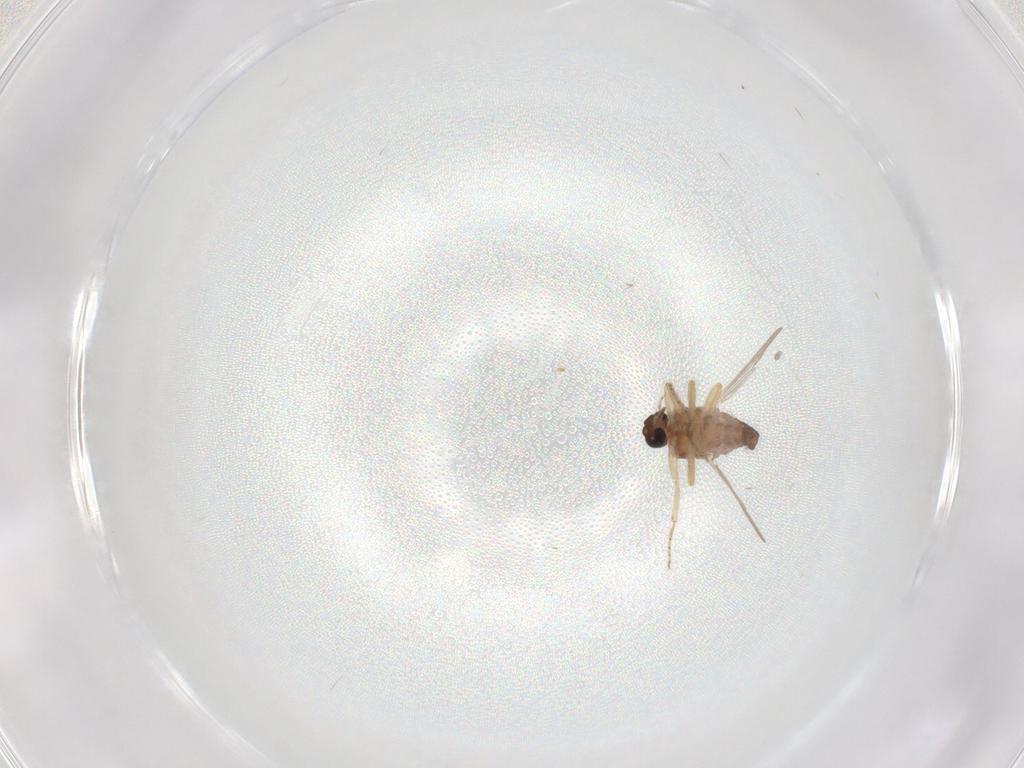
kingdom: Animalia
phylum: Arthropoda
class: Insecta
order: Diptera
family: Ceratopogonidae
